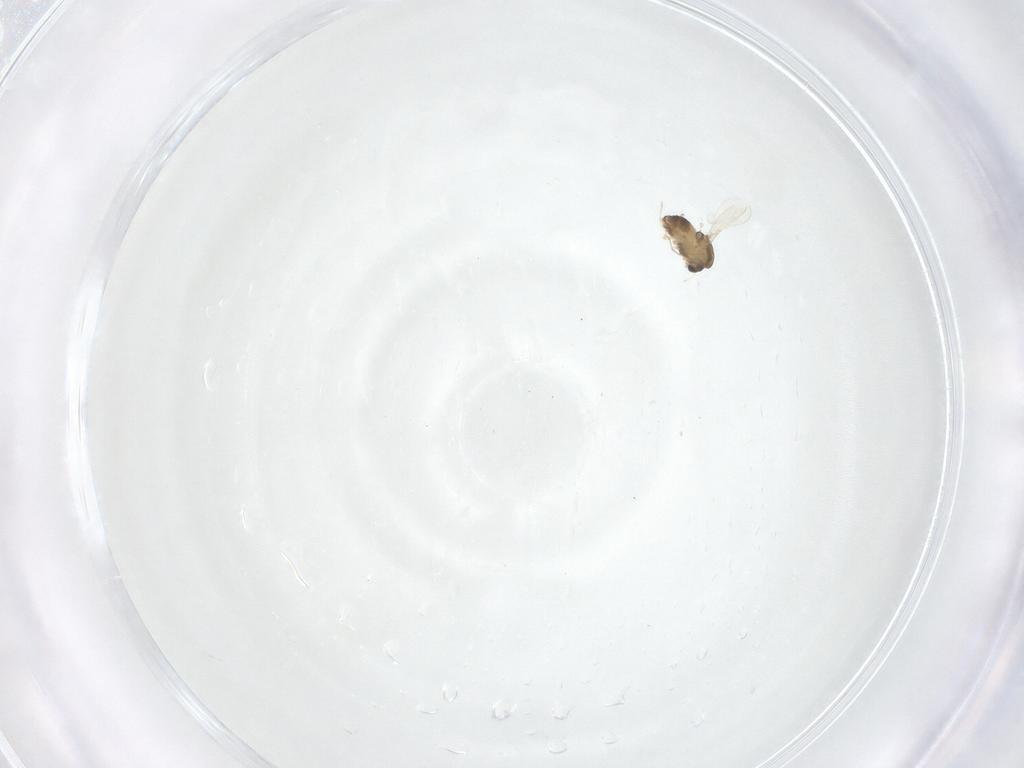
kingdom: Animalia
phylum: Arthropoda
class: Insecta
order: Diptera
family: Chironomidae
